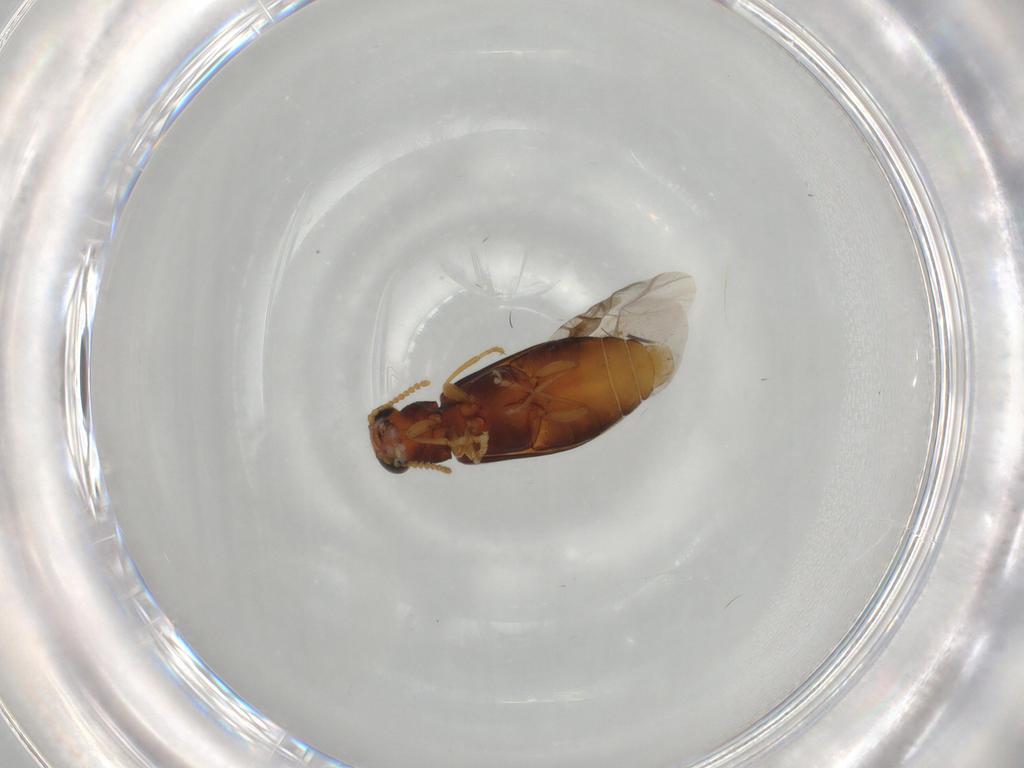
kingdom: Animalia
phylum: Arthropoda
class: Insecta
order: Coleoptera
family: Mycteridae
